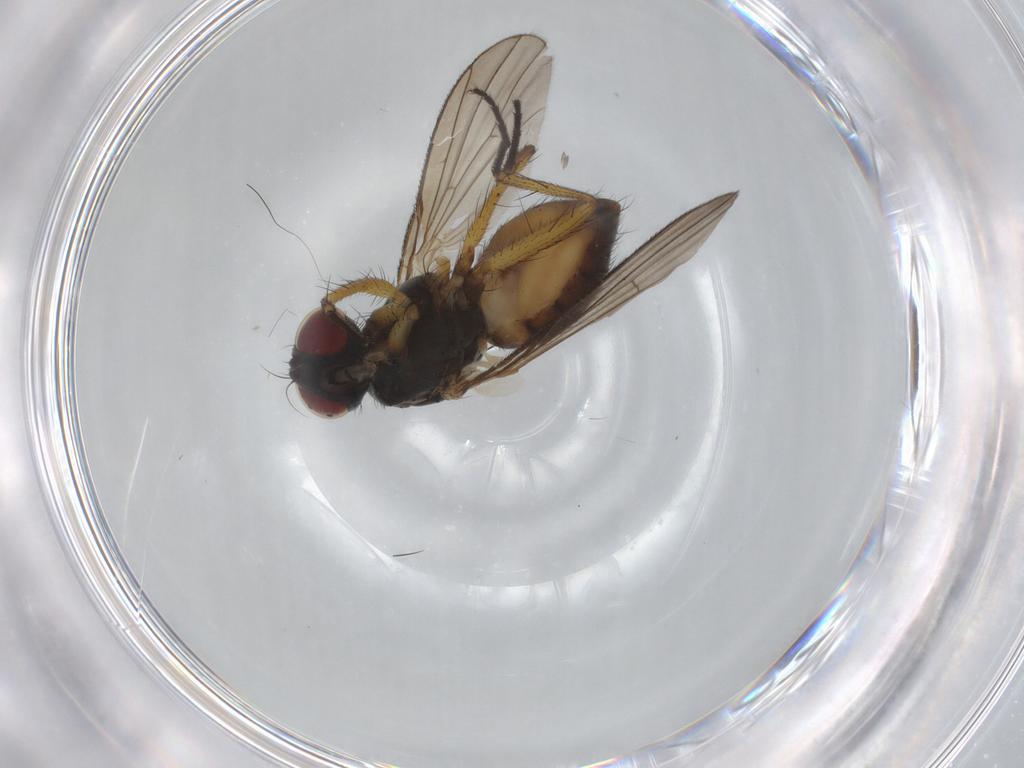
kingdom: Animalia
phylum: Arthropoda
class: Insecta
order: Diptera
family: Muscidae
